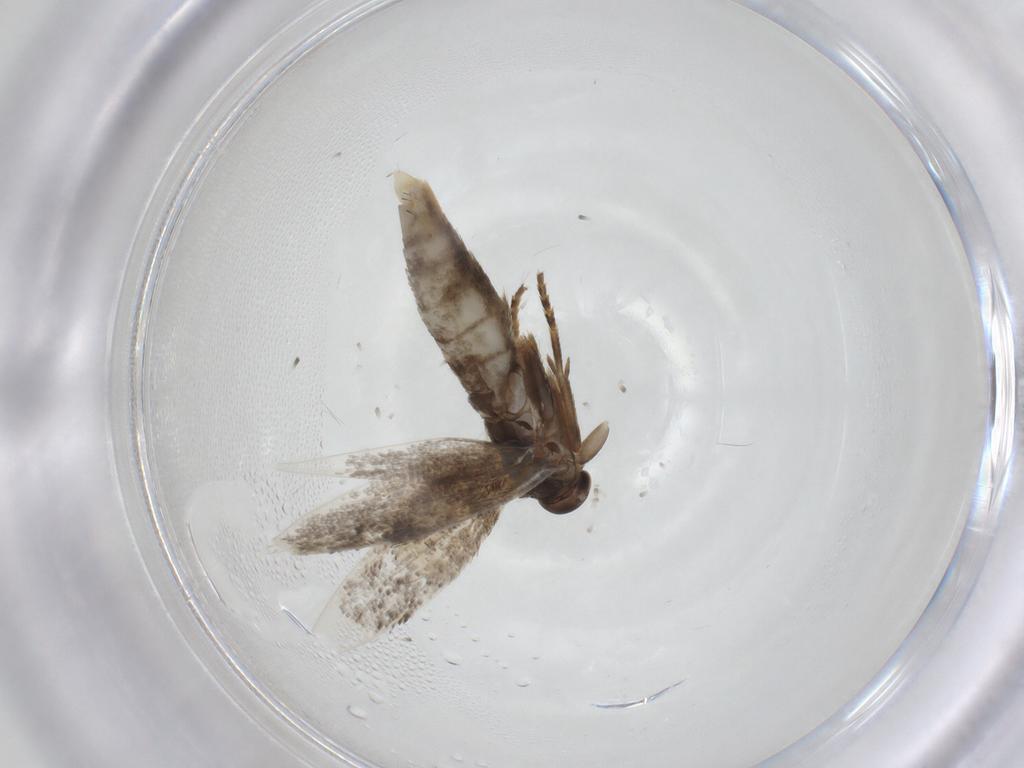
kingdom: Animalia
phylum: Arthropoda
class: Insecta
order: Lepidoptera
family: Elachistidae
